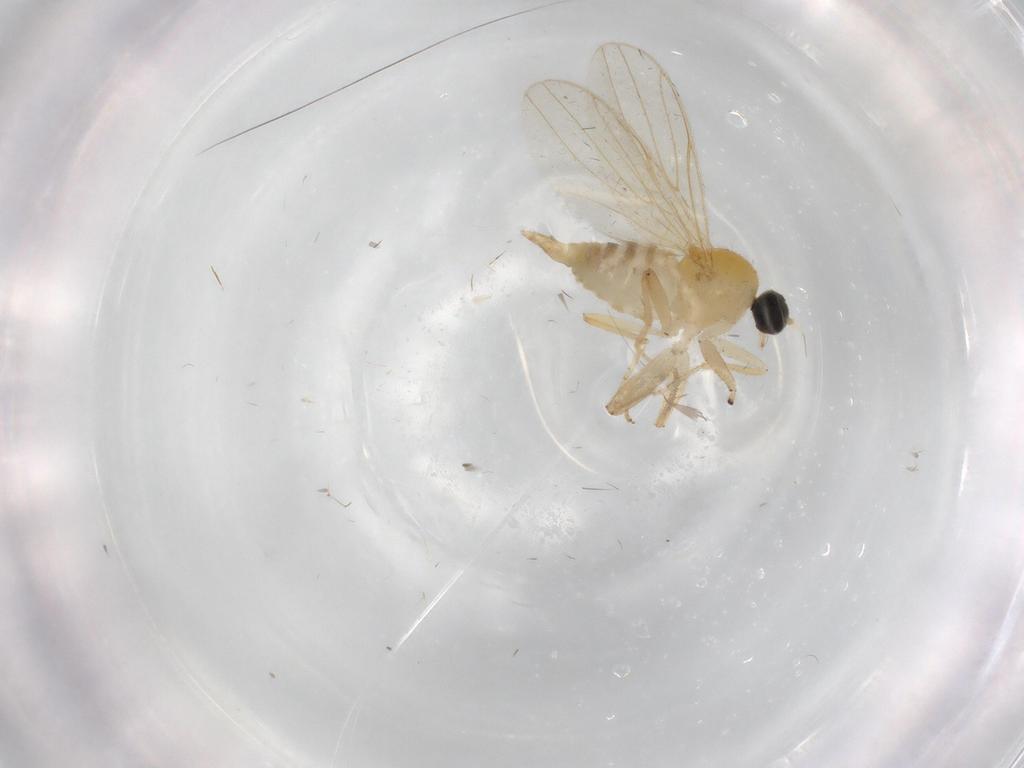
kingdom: Animalia
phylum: Arthropoda
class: Insecta
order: Diptera
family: Hybotidae
